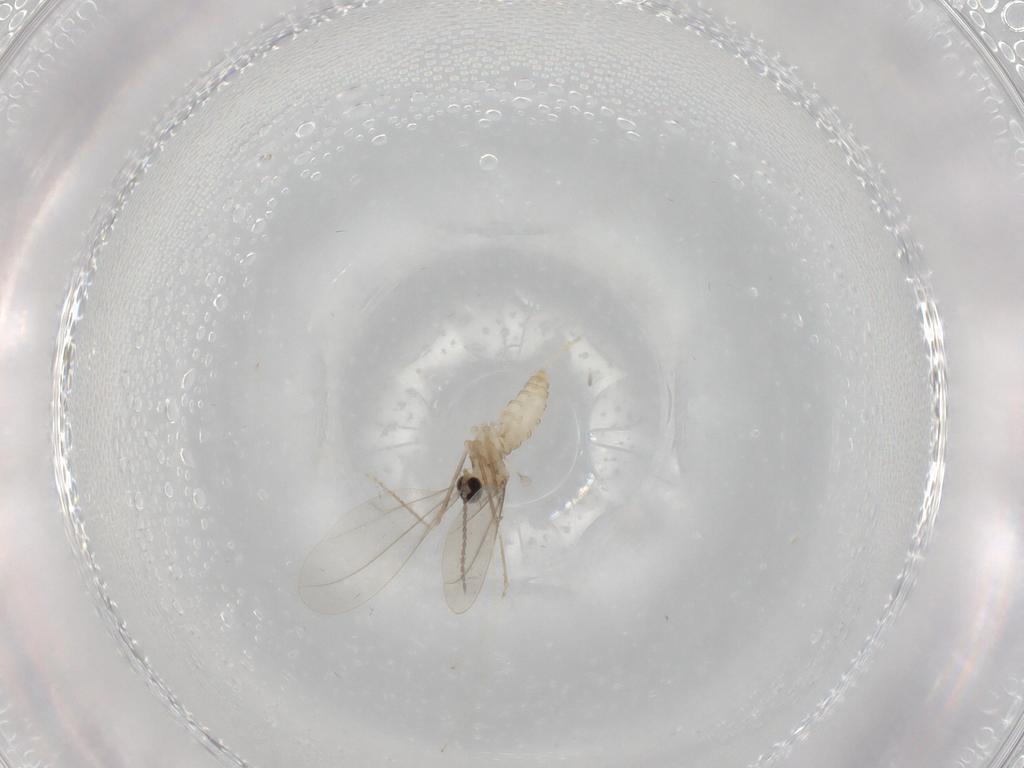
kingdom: Animalia
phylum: Arthropoda
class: Insecta
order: Diptera
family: Cecidomyiidae
